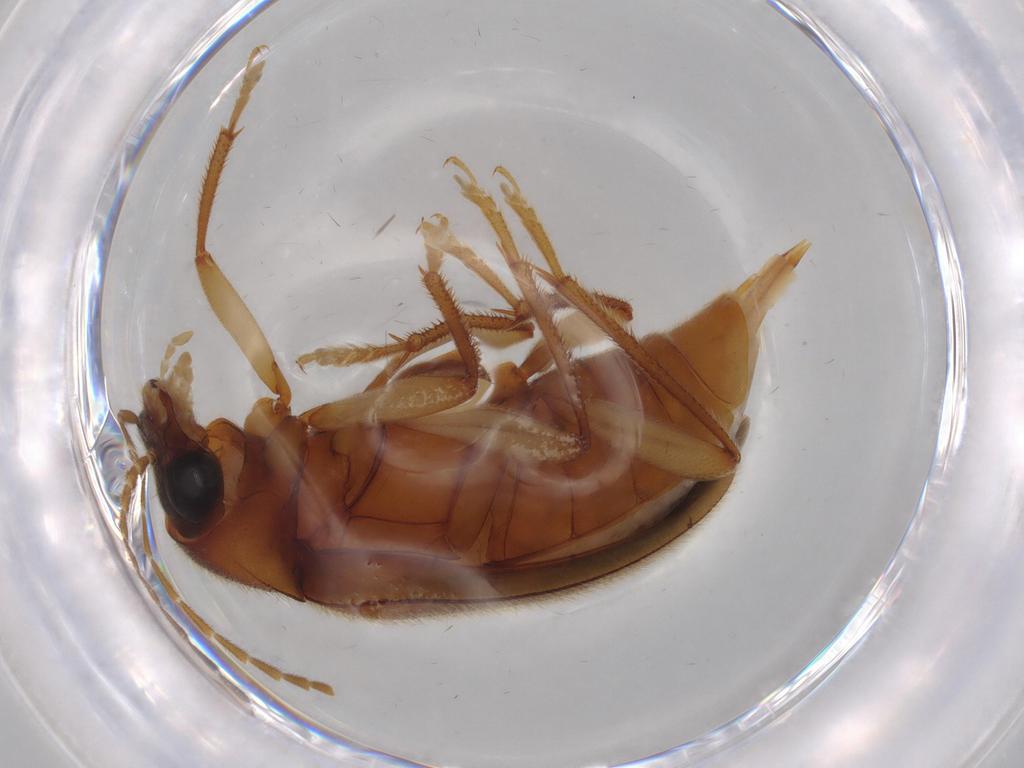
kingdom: Animalia
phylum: Arthropoda
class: Insecta
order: Coleoptera
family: Ptilodactylidae
